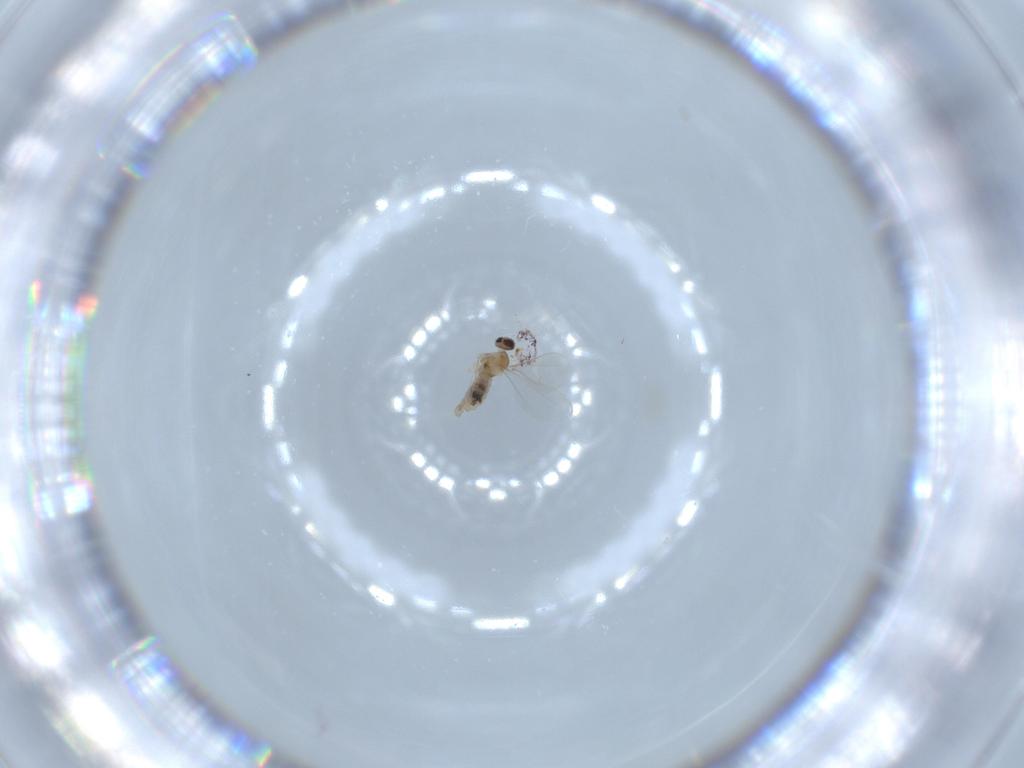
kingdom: Animalia
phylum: Arthropoda
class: Insecta
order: Diptera
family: Cecidomyiidae
